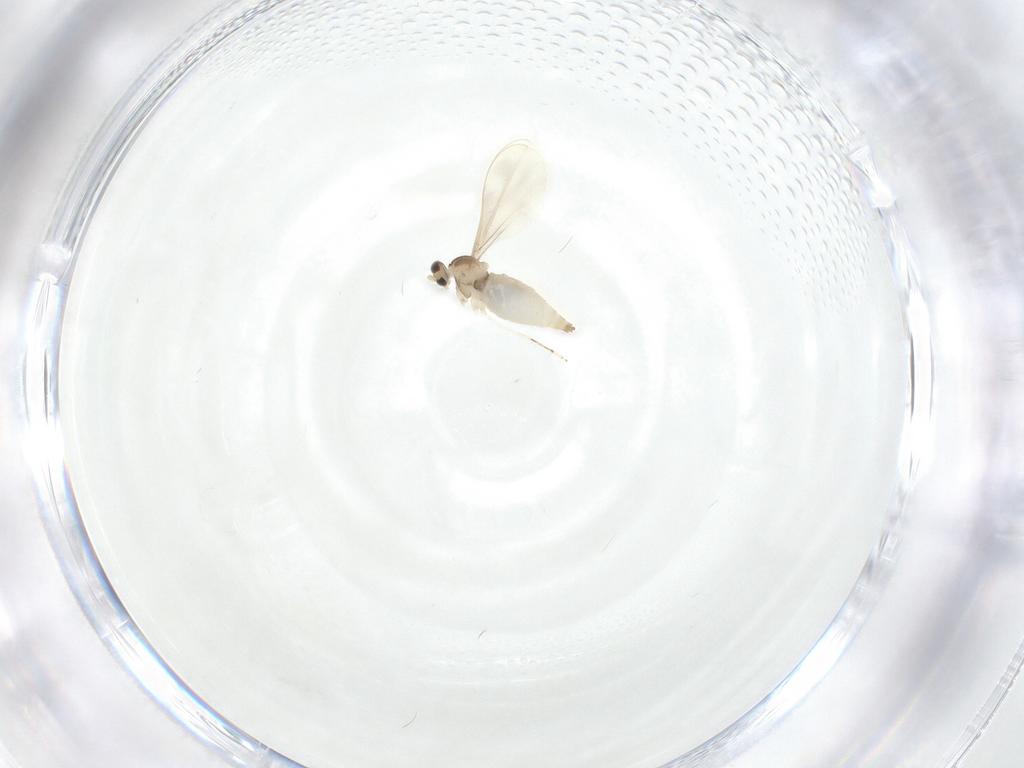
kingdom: Animalia
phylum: Arthropoda
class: Insecta
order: Diptera
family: Cecidomyiidae
